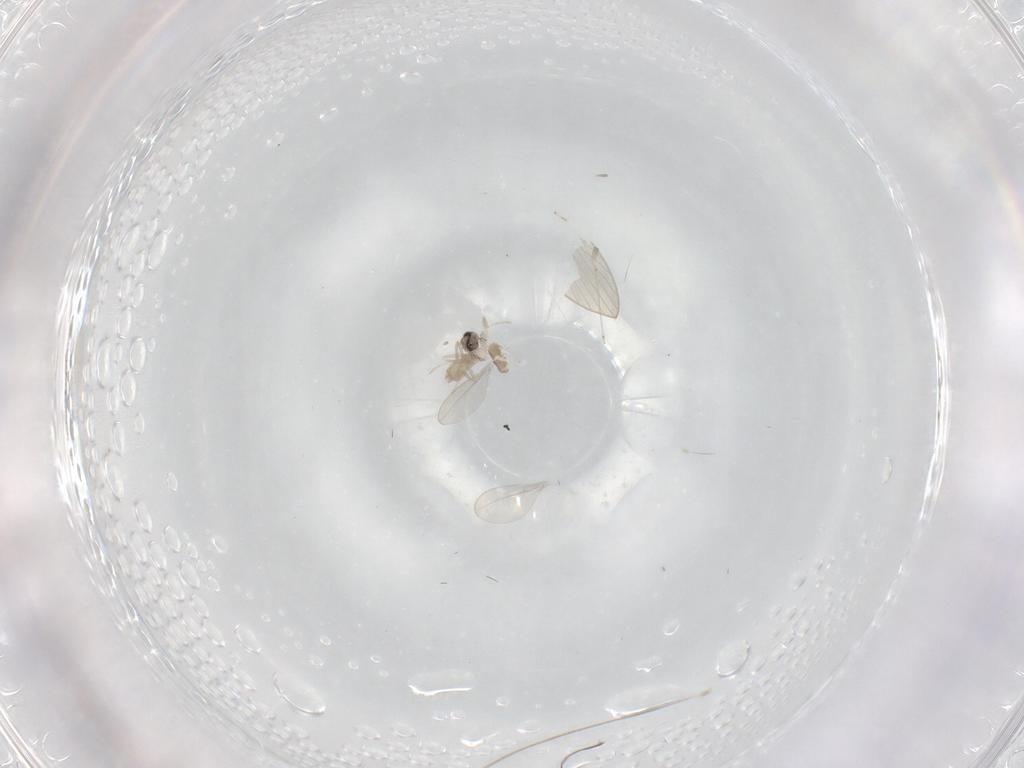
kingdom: Animalia
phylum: Arthropoda
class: Insecta
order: Diptera
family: Cecidomyiidae
